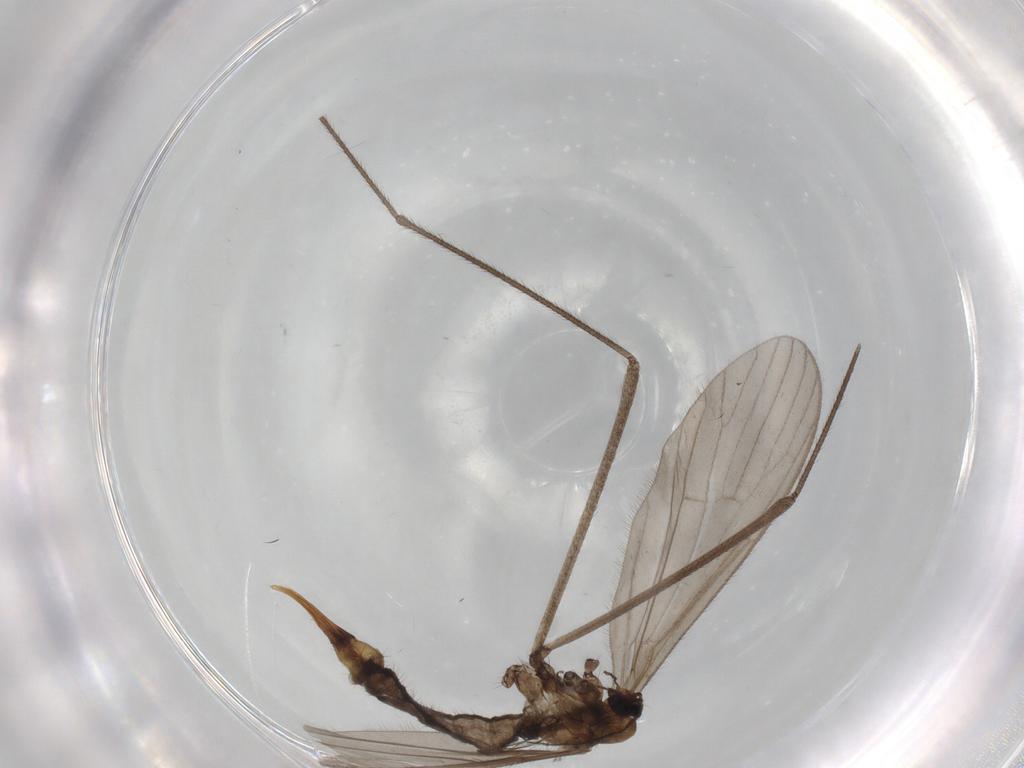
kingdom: Animalia
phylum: Arthropoda
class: Insecta
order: Diptera
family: Limoniidae
